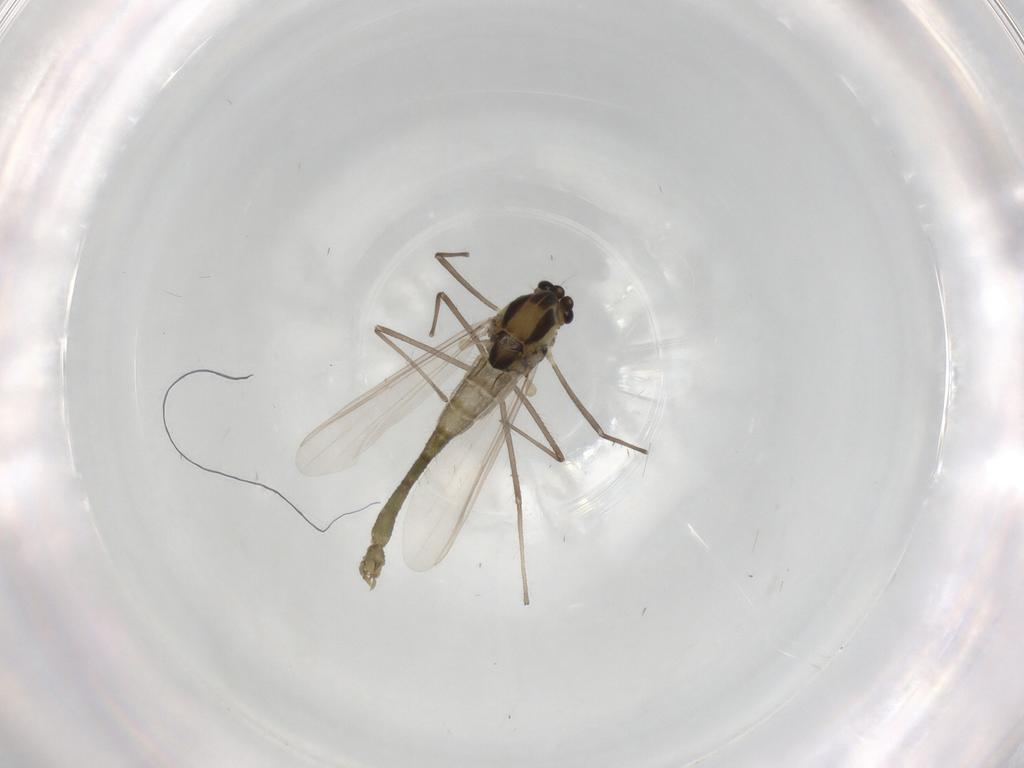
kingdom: Animalia
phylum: Arthropoda
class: Insecta
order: Diptera
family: Chironomidae
